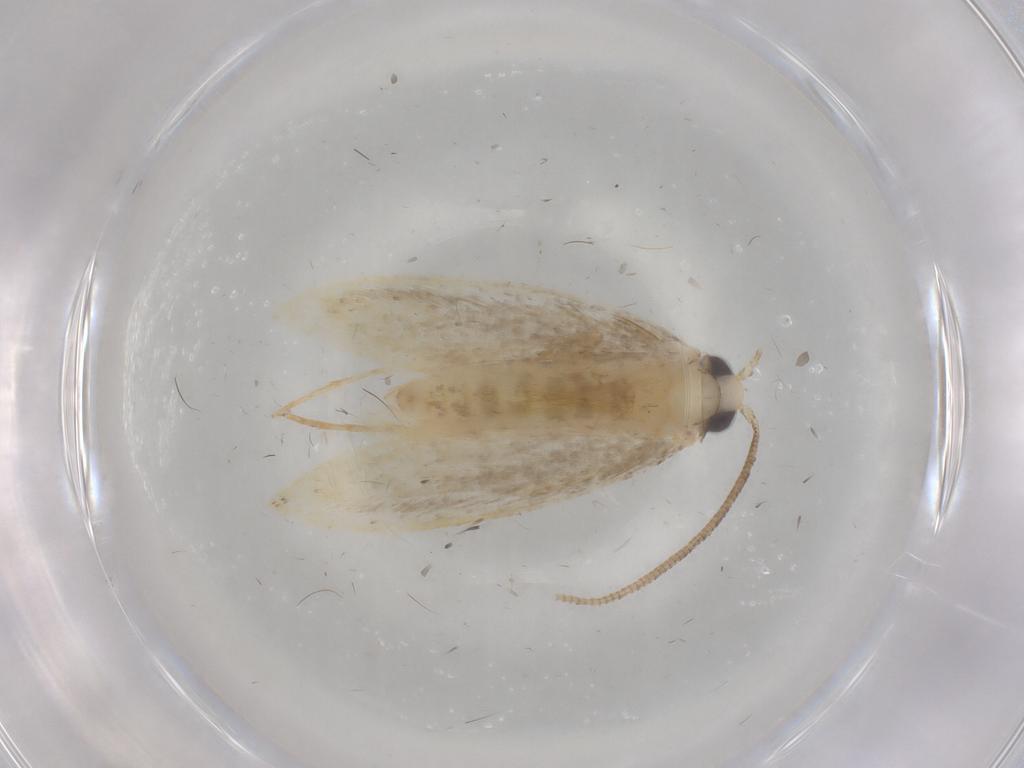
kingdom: Animalia
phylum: Arthropoda
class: Insecta
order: Lepidoptera
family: Tineidae
